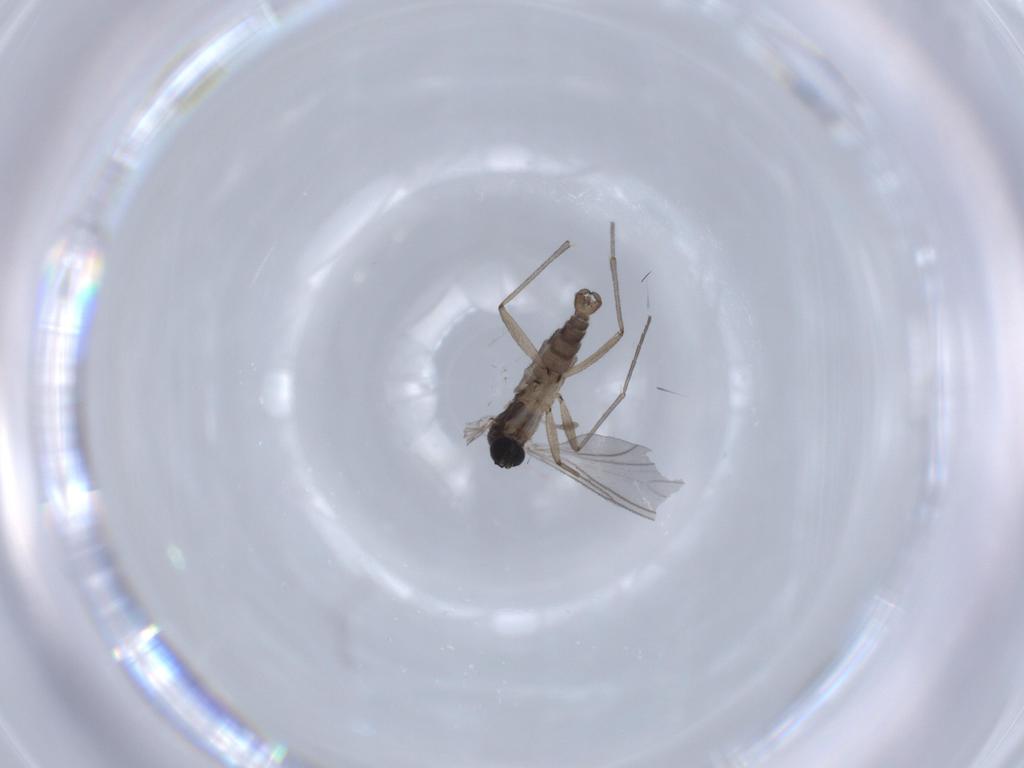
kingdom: Animalia
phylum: Arthropoda
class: Insecta
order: Diptera
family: Sciaridae
